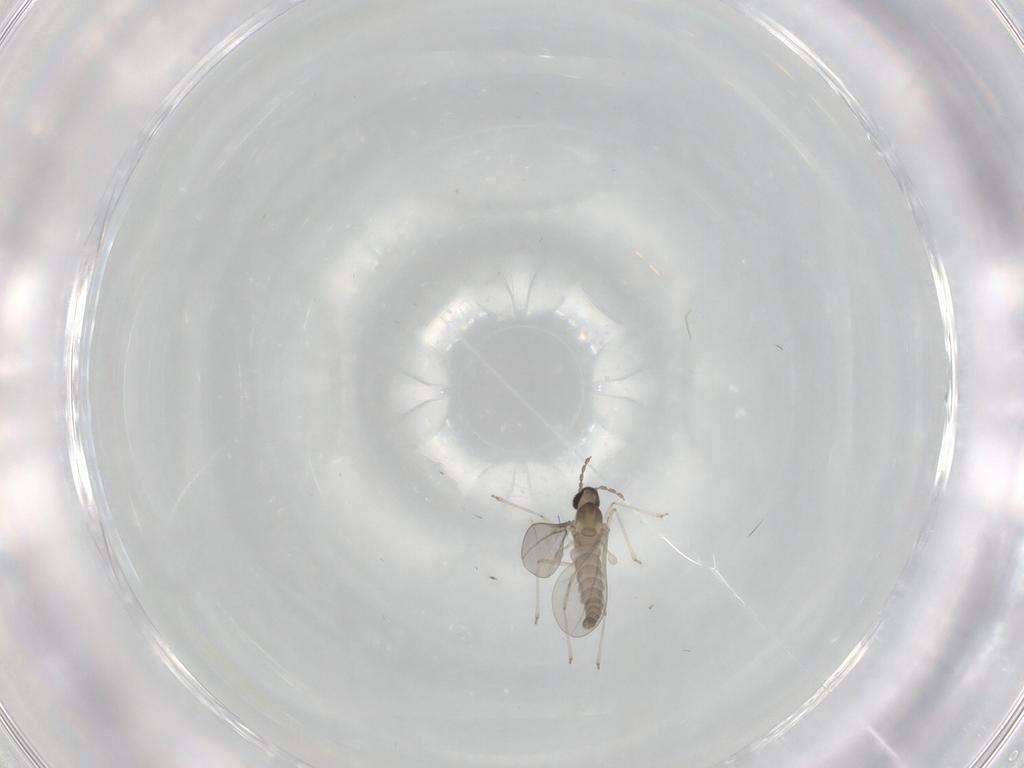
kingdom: Animalia
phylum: Arthropoda
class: Insecta
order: Diptera
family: Cecidomyiidae
